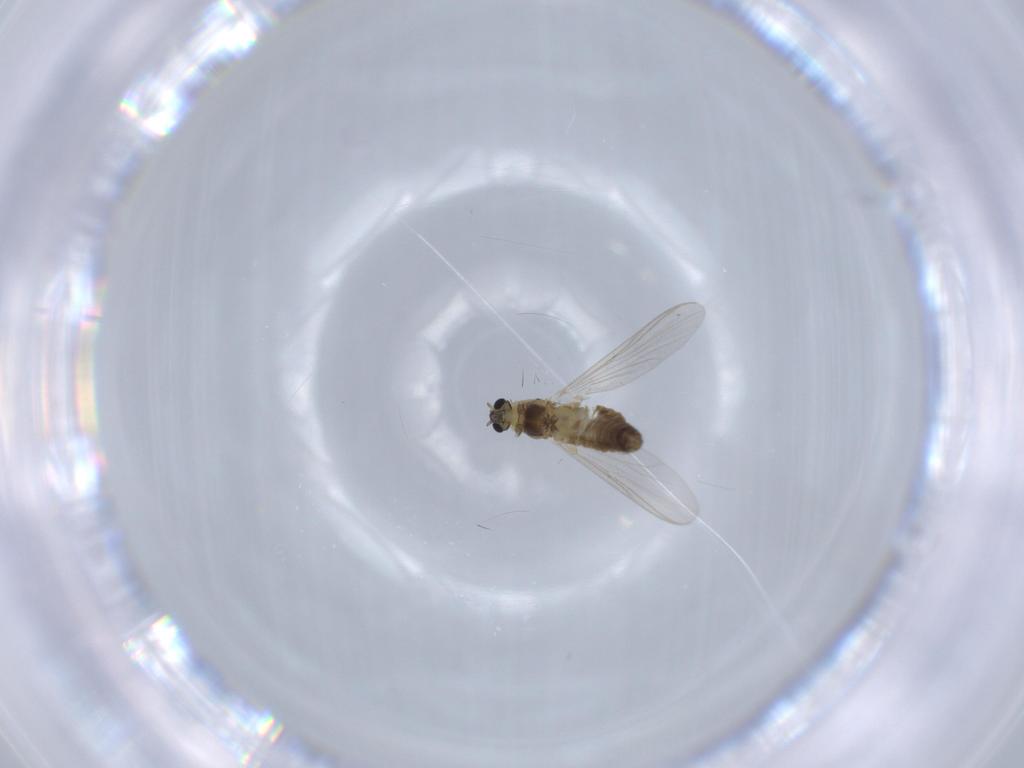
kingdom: Animalia
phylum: Arthropoda
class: Insecta
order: Diptera
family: Chironomidae
